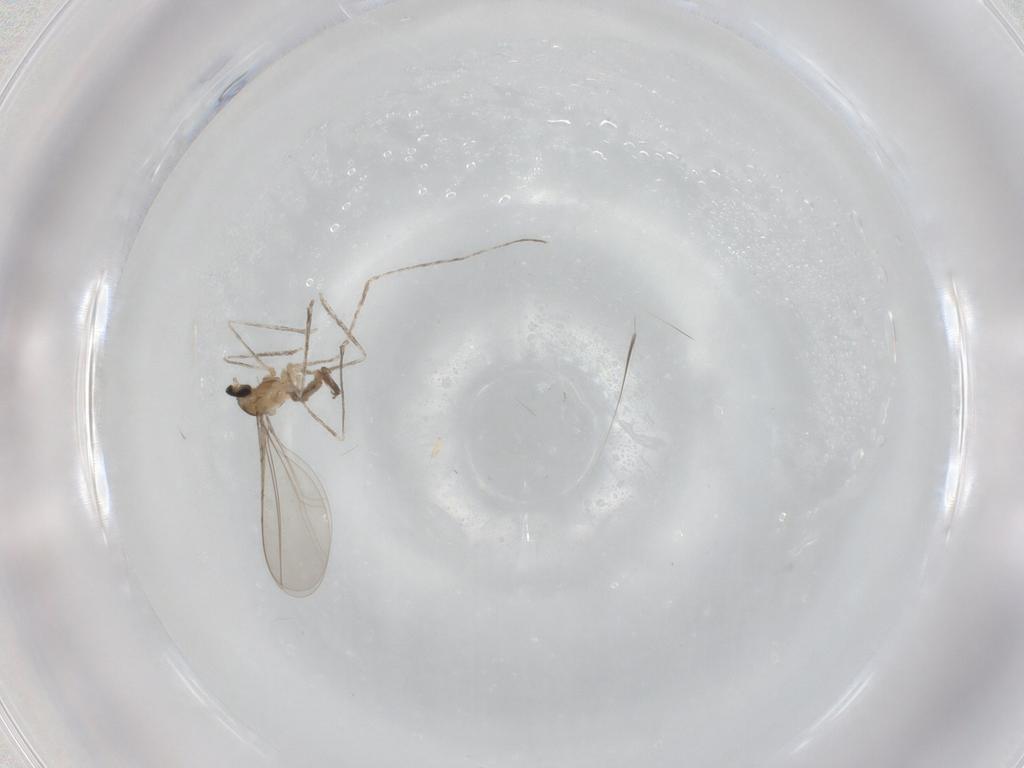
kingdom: Animalia
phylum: Arthropoda
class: Insecta
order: Diptera
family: Cecidomyiidae
